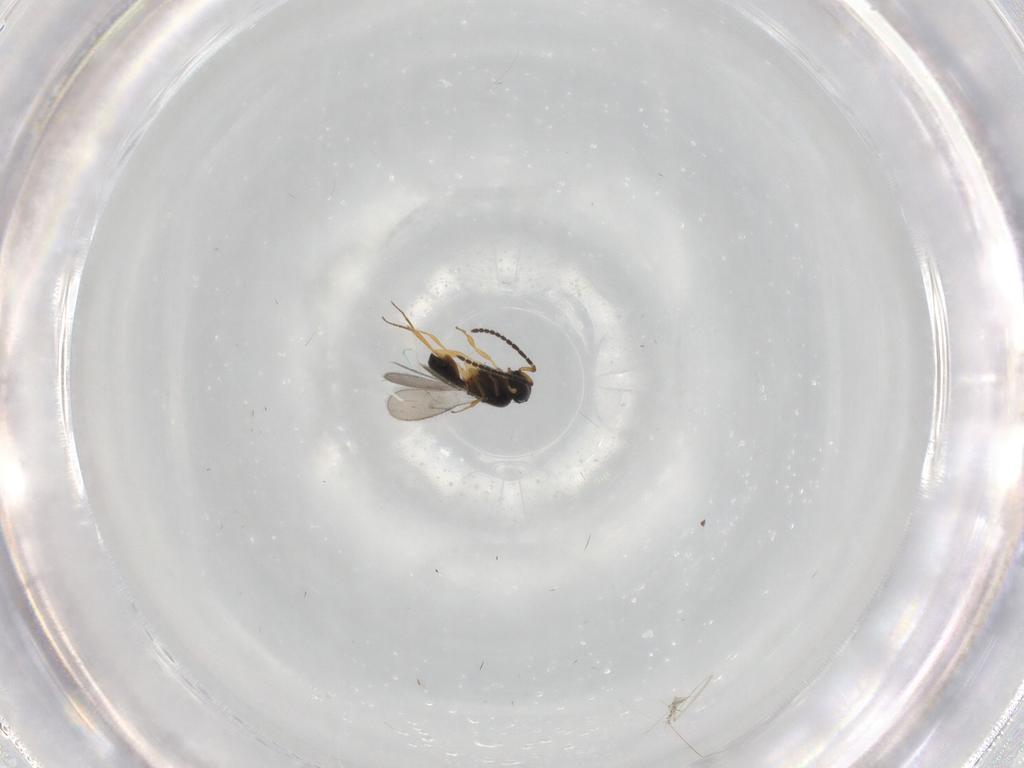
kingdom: Animalia
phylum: Arthropoda
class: Insecta
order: Hymenoptera
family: Scelionidae
